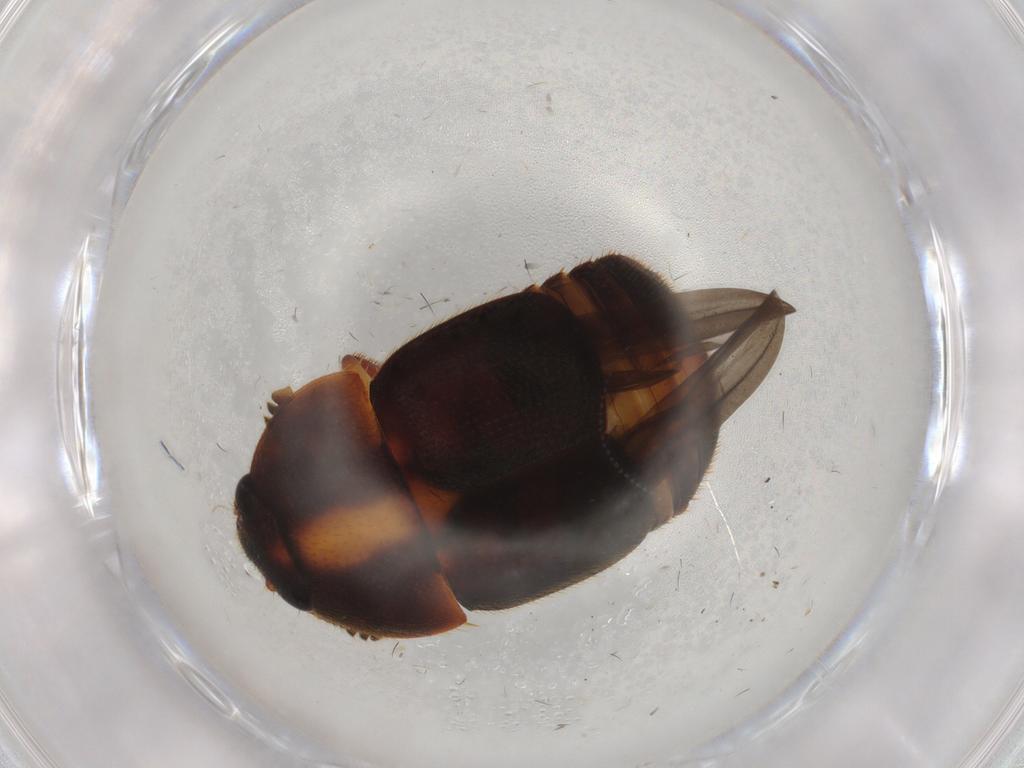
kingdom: Animalia
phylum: Arthropoda
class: Insecta
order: Coleoptera
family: Nitidulidae
